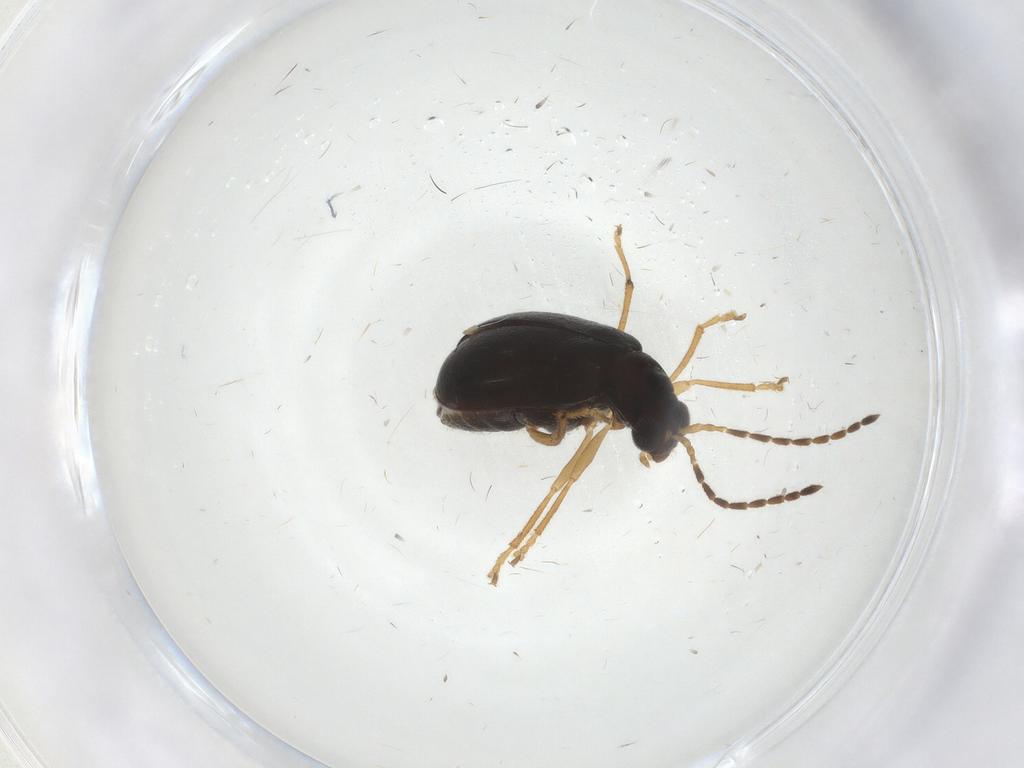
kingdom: Animalia
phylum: Arthropoda
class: Insecta
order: Coleoptera
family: Chrysomelidae
